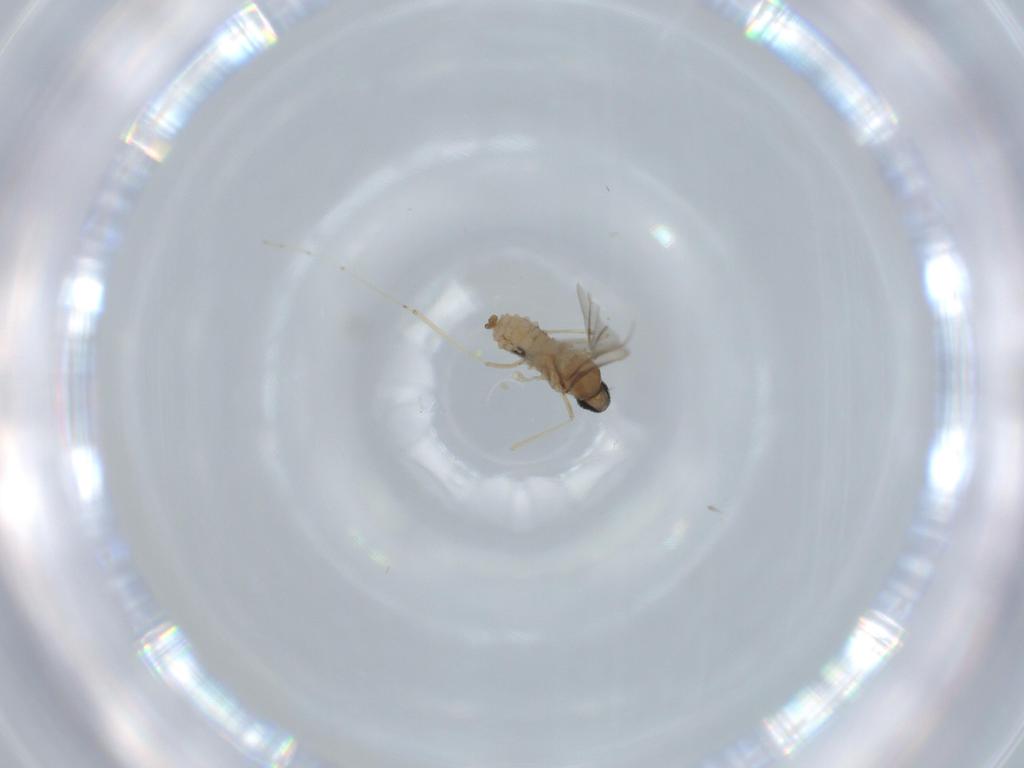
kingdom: Animalia
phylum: Arthropoda
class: Insecta
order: Diptera
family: Cecidomyiidae
